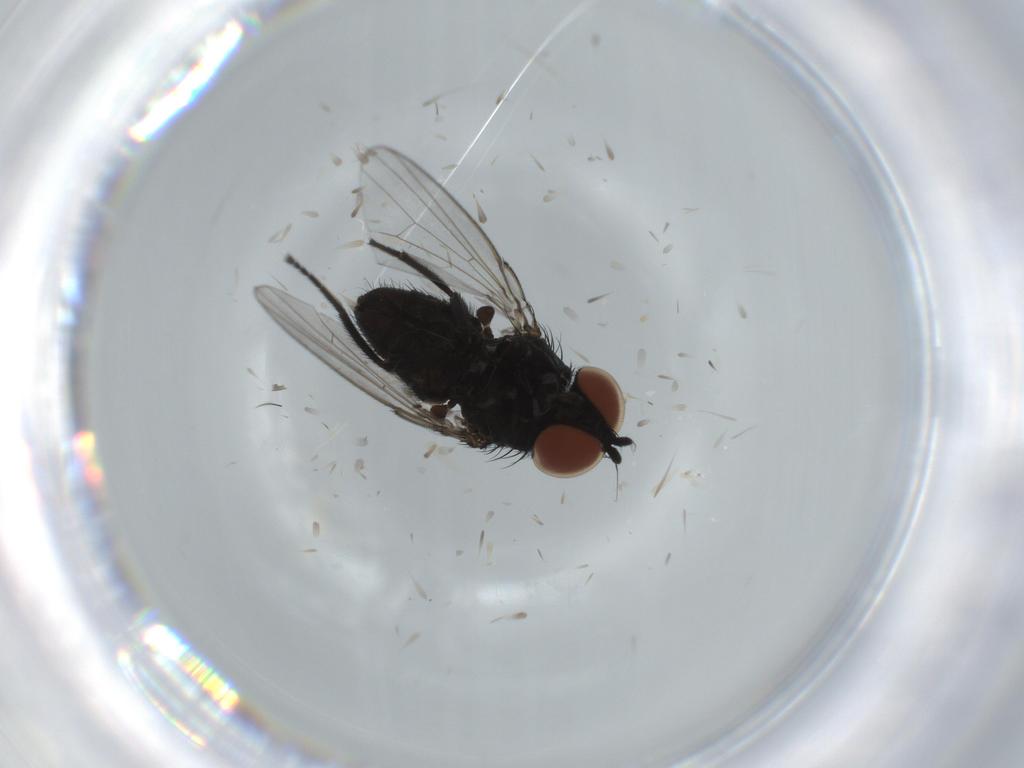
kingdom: Animalia
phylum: Arthropoda
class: Insecta
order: Diptera
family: Milichiidae
